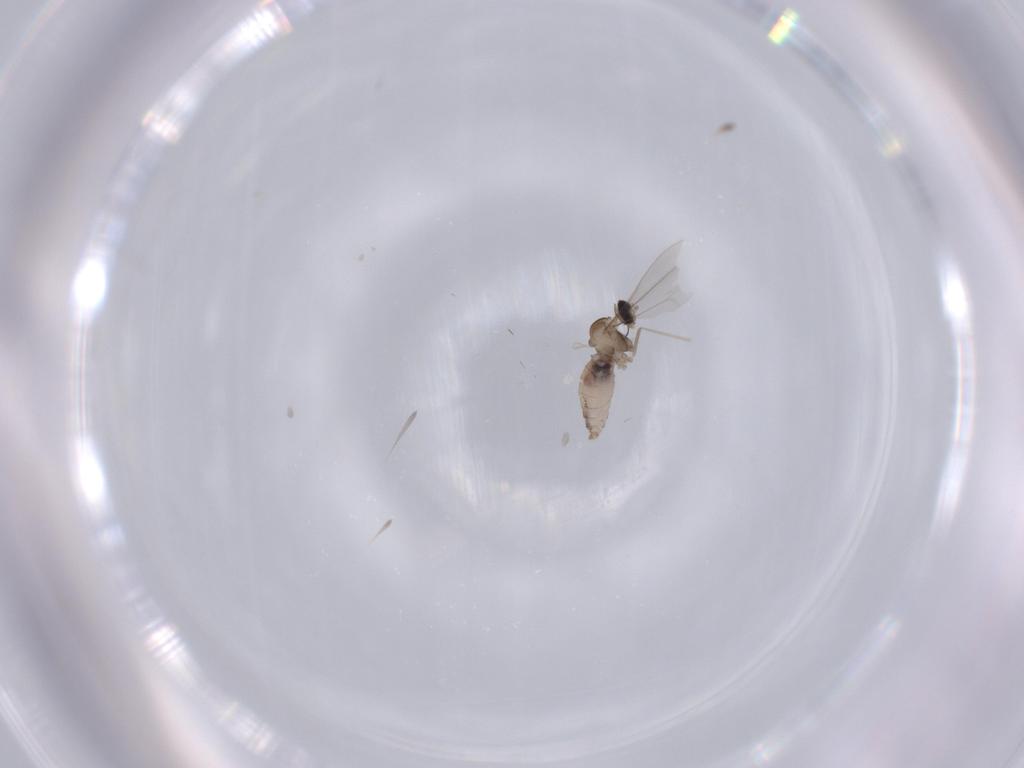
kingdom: Animalia
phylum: Arthropoda
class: Insecta
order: Diptera
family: Cecidomyiidae
